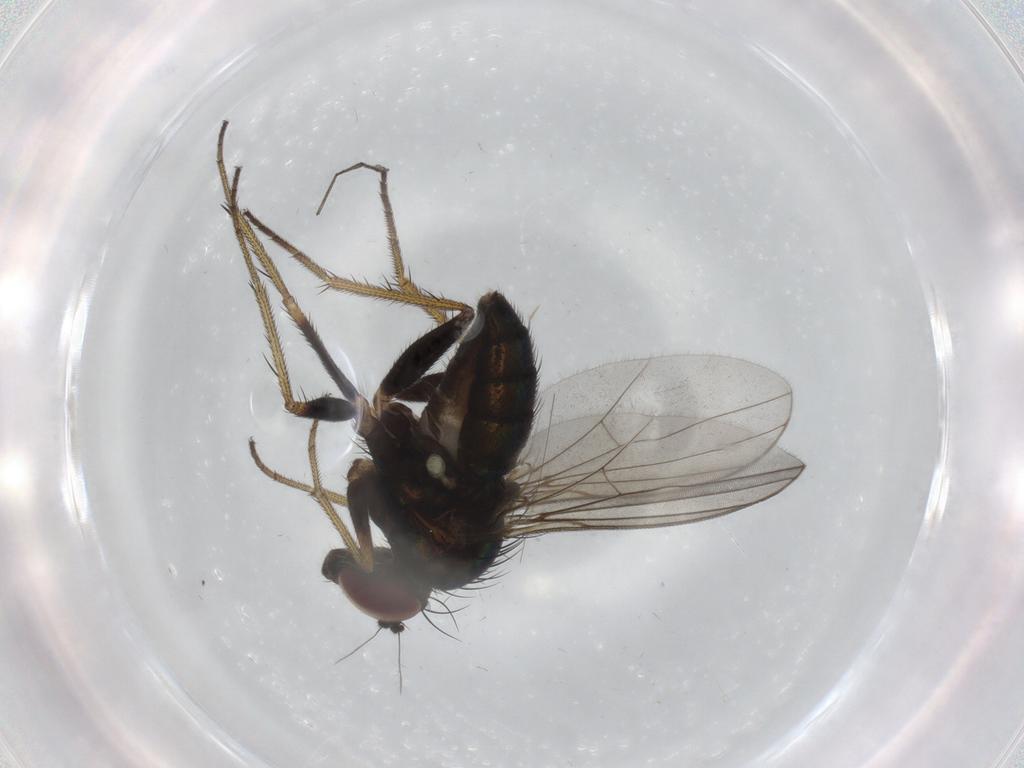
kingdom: Animalia
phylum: Arthropoda
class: Insecta
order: Diptera
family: Sciaridae
